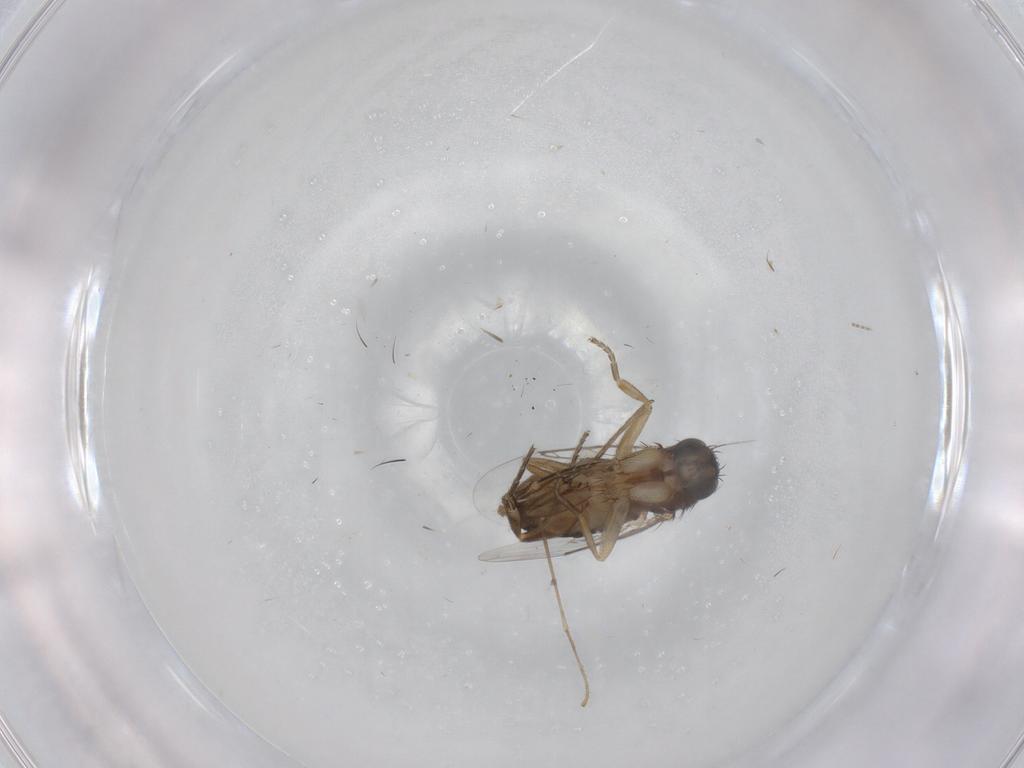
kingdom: Animalia
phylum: Arthropoda
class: Insecta
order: Diptera
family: Phoridae
